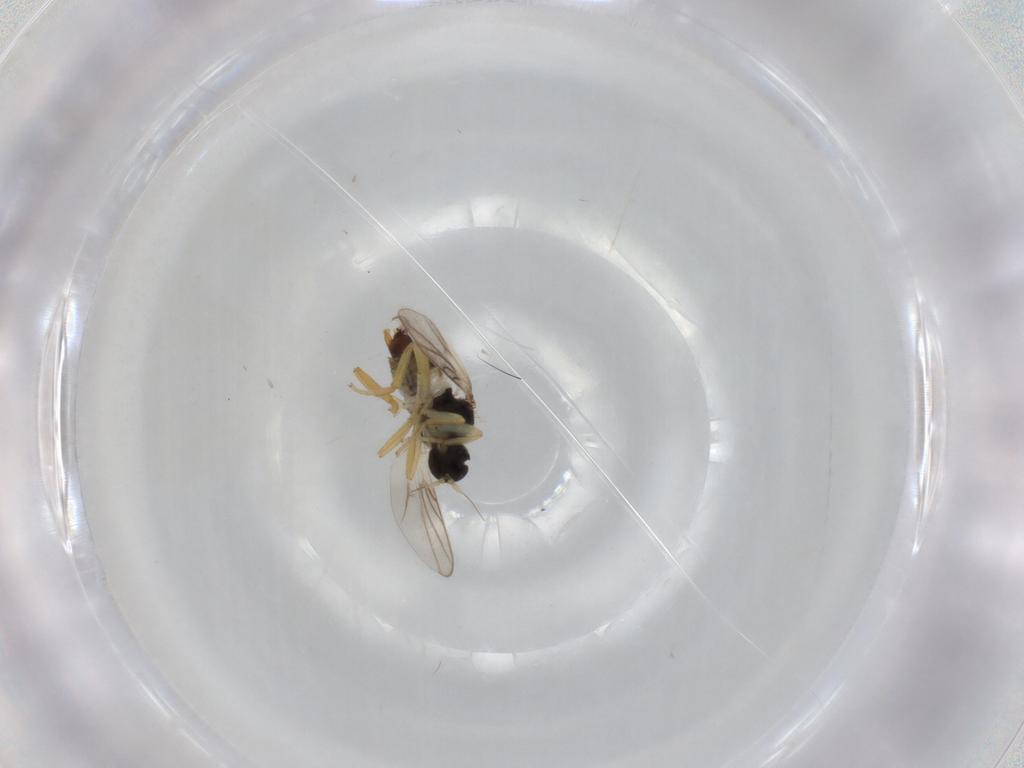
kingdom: Animalia
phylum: Arthropoda
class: Insecta
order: Diptera
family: Hybotidae
